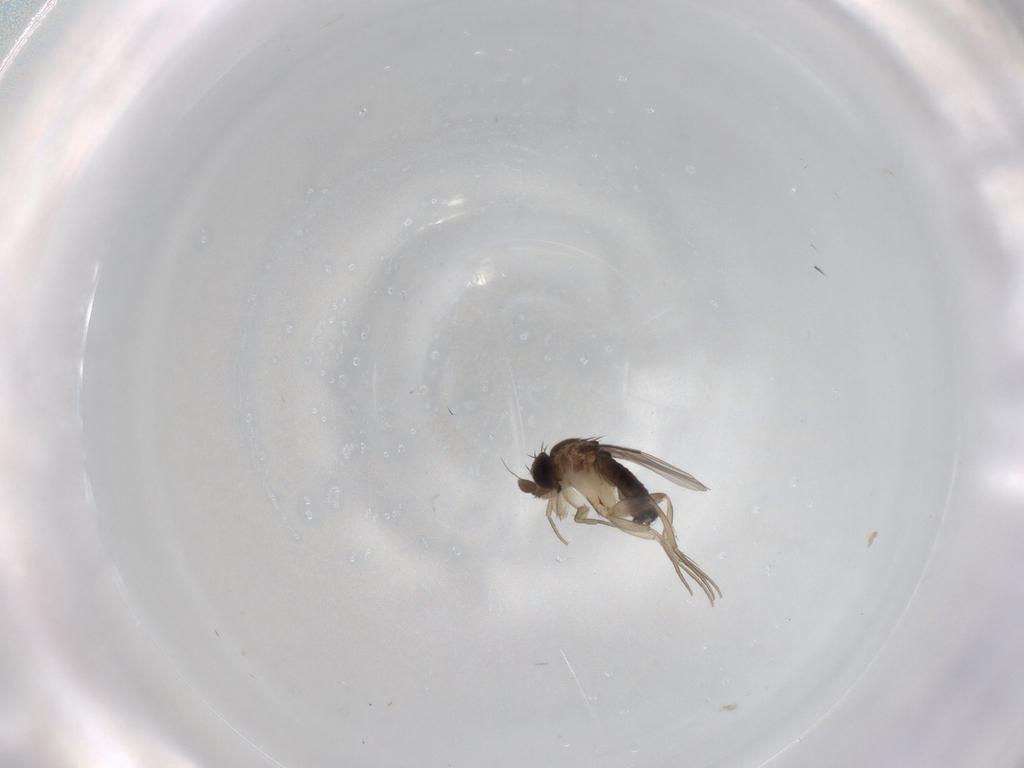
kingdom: Animalia
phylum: Arthropoda
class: Insecta
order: Diptera
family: Phoridae
